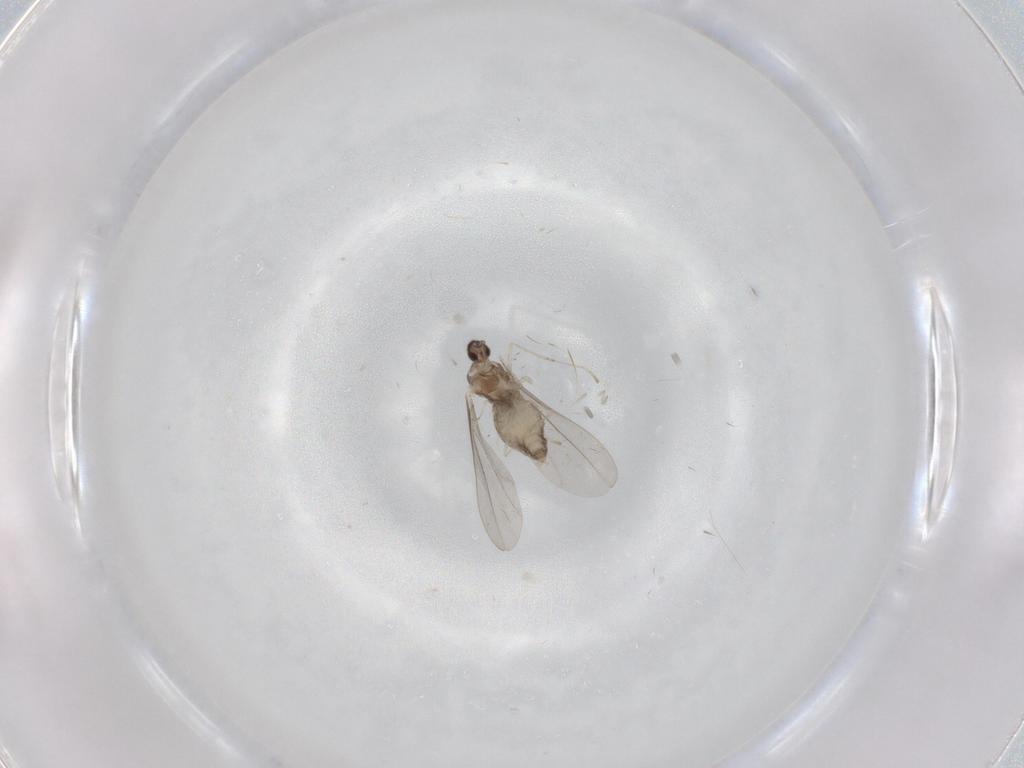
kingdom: Animalia
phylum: Arthropoda
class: Insecta
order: Diptera
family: Cecidomyiidae
